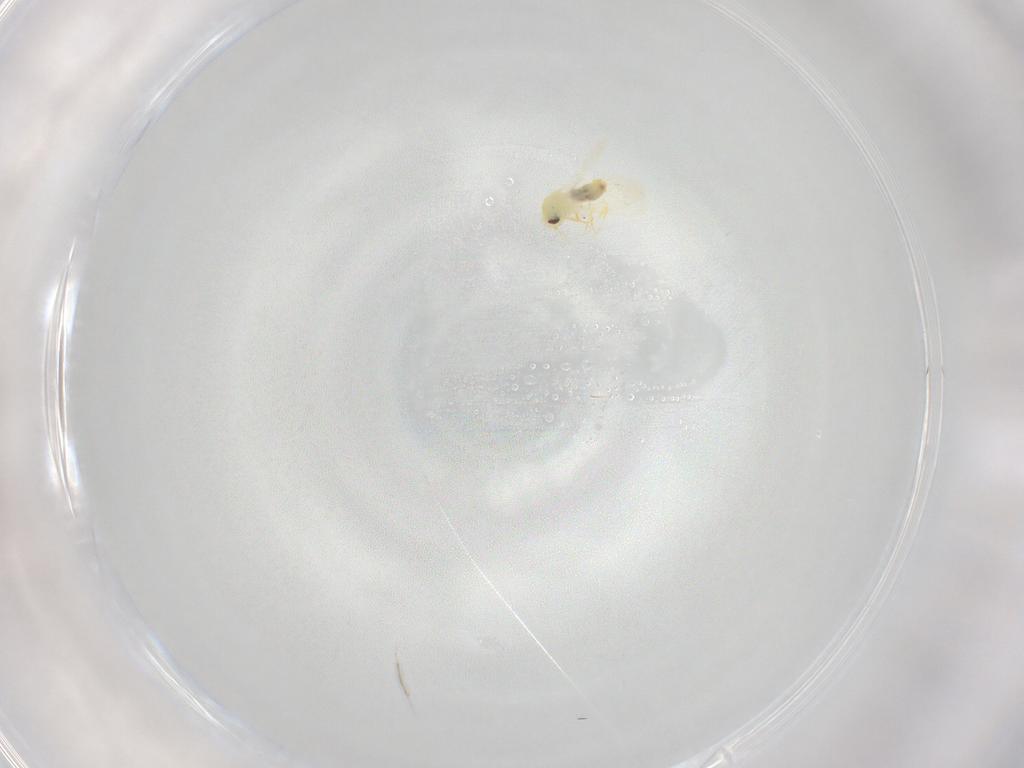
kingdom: Animalia
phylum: Arthropoda
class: Insecta
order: Hemiptera
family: Aleyrodidae
